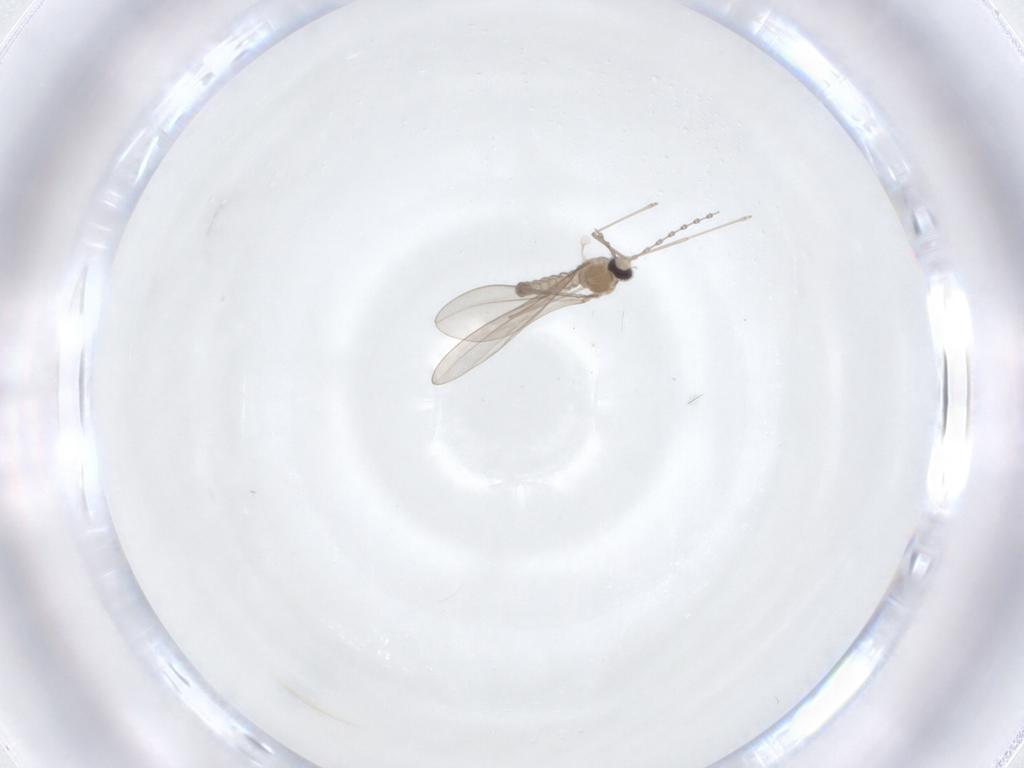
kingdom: Animalia
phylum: Arthropoda
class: Insecta
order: Diptera
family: Cecidomyiidae
